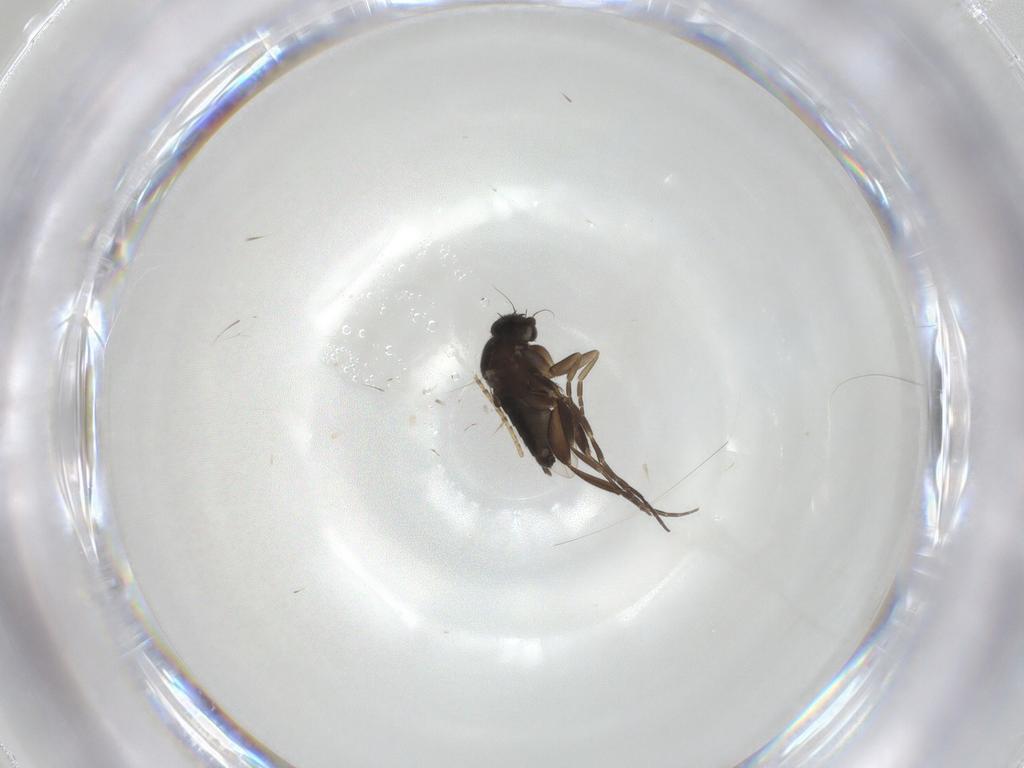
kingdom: Animalia
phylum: Arthropoda
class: Insecta
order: Diptera
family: Phoridae
